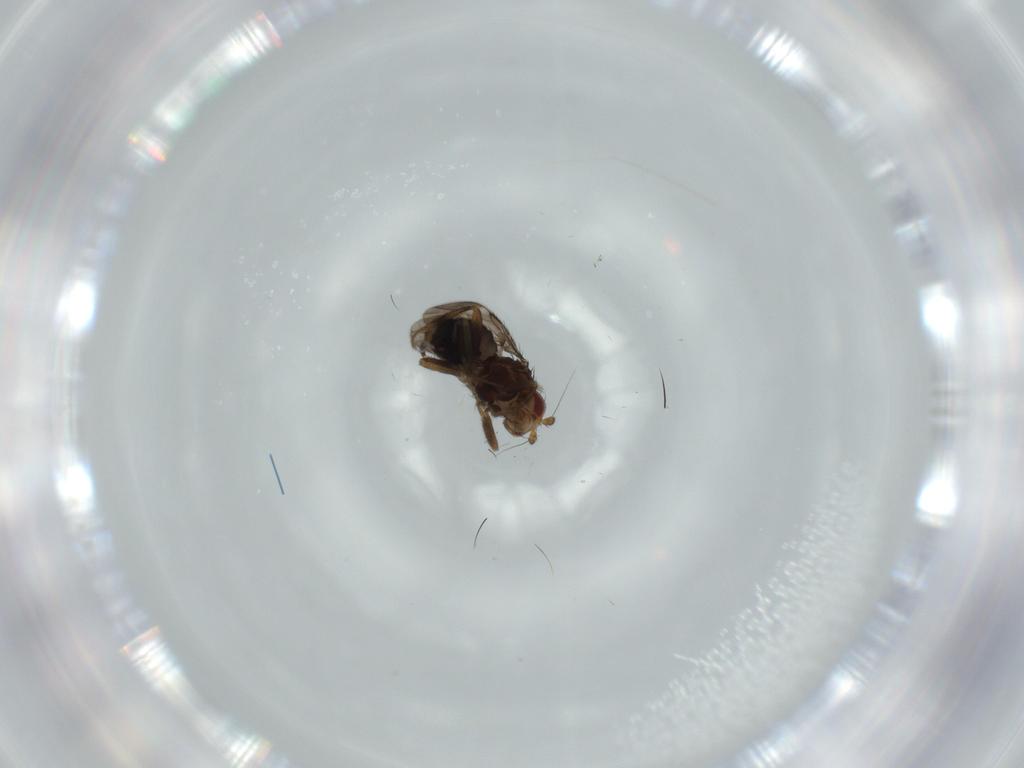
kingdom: Animalia
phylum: Arthropoda
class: Insecta
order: Diptera
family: Sphaeroceridae
